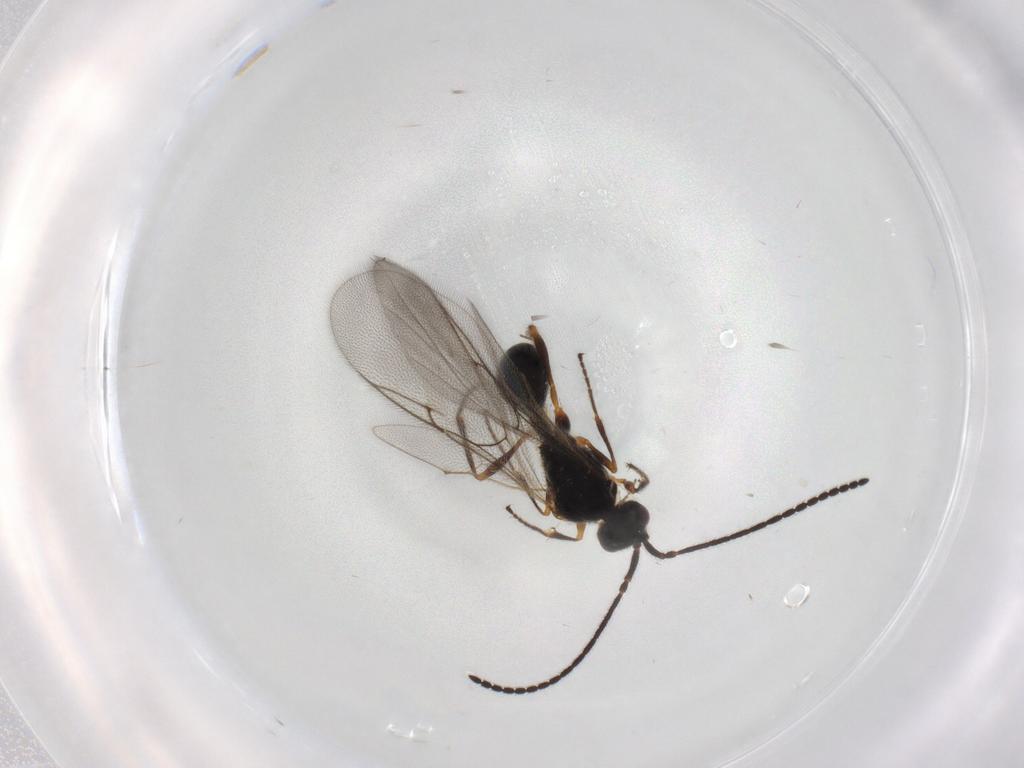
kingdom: Animalia
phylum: Arthropoda
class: Insecta
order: Hymenoptera
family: Diapriidae
